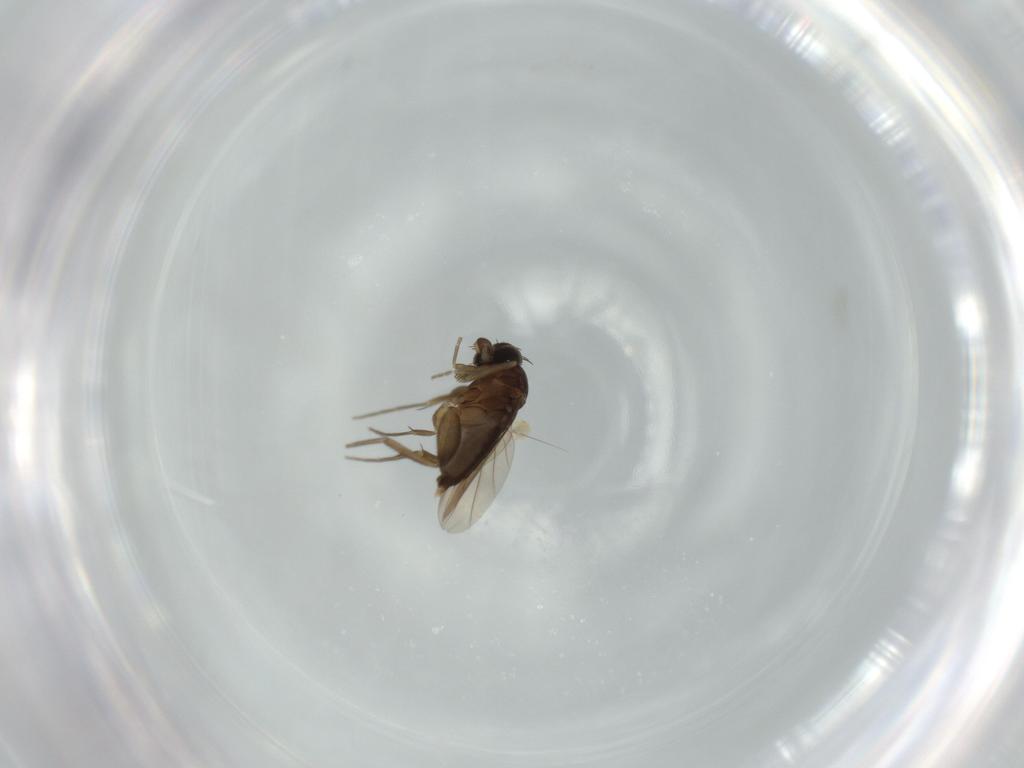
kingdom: Animalia
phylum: Arthropoda
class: Insecta
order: Diptera
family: Phoridae
